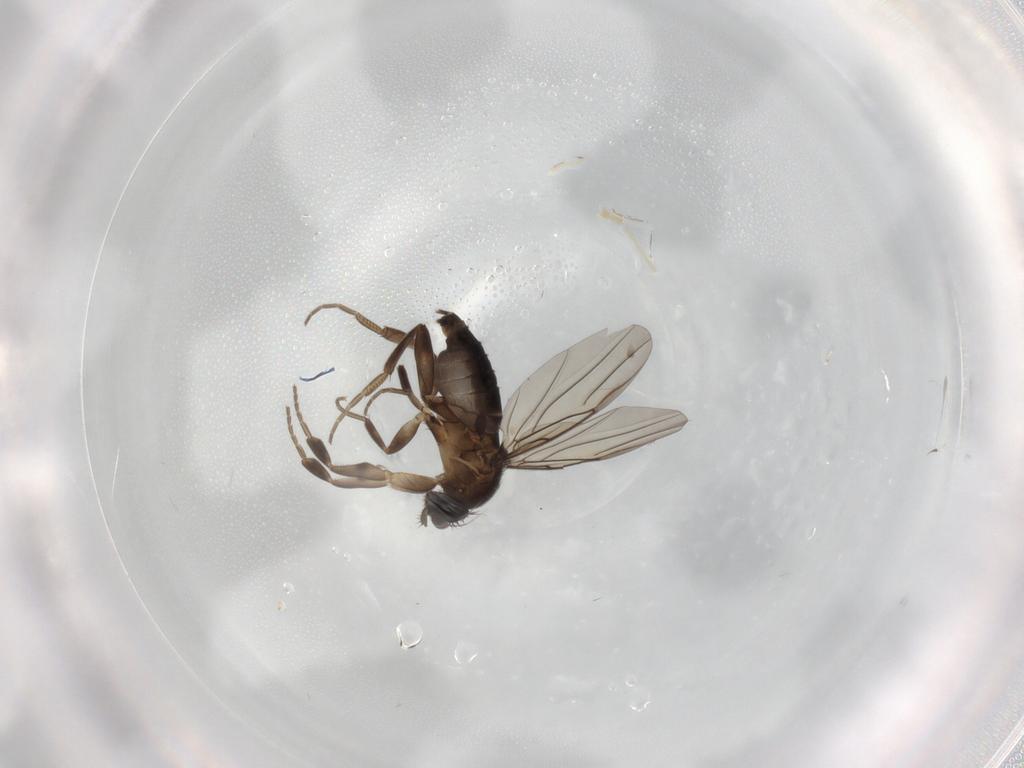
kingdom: Animalia
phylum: Arthropoda
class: Insecta
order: Diptera
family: Phoridae
